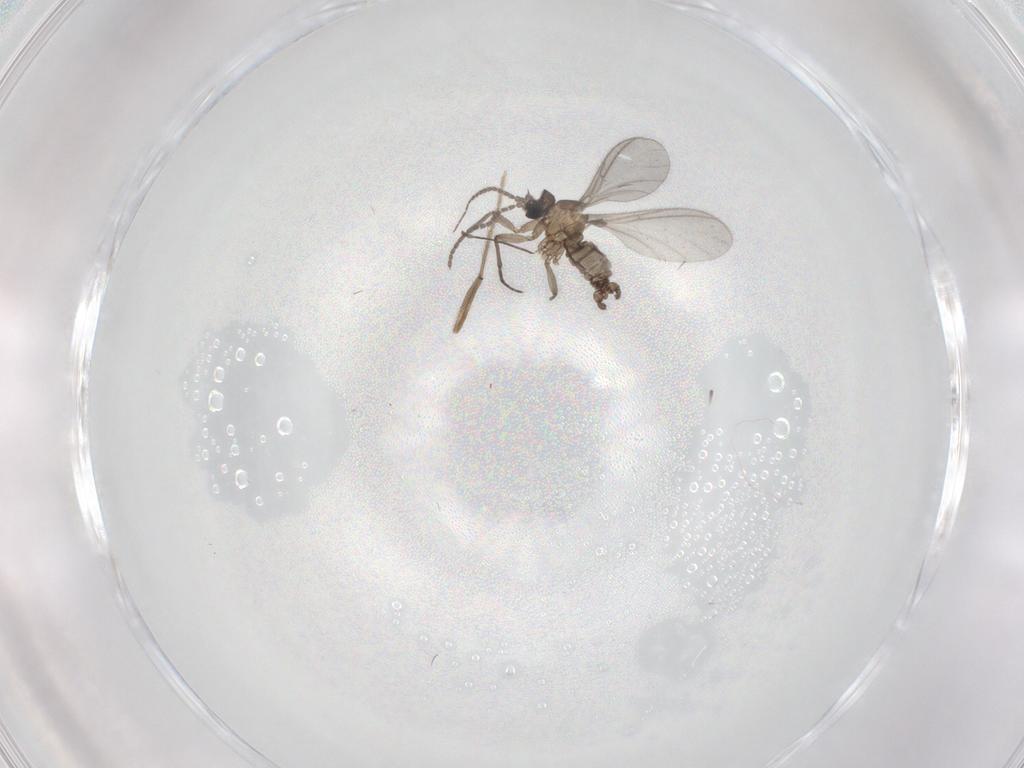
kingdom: Animalia
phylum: Arthropoda
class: Insecta
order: Diptera
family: Sciaridae
